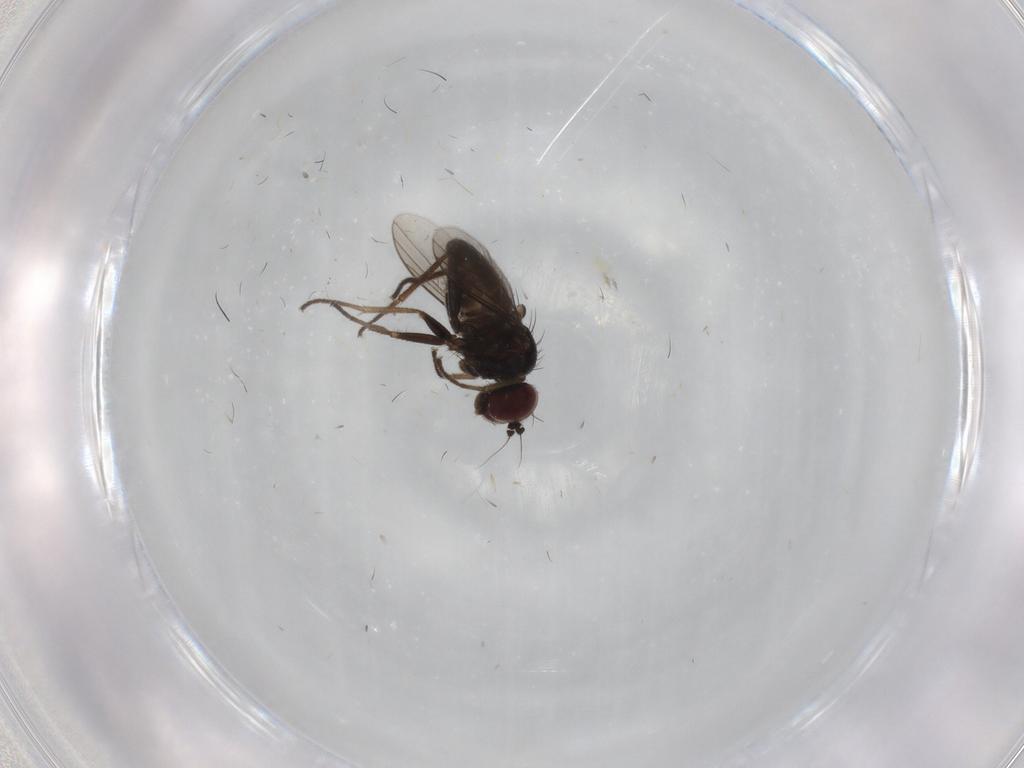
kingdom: Animalia
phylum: Arthropoda
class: Insecta
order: Diptera
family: Dolichopodidae
